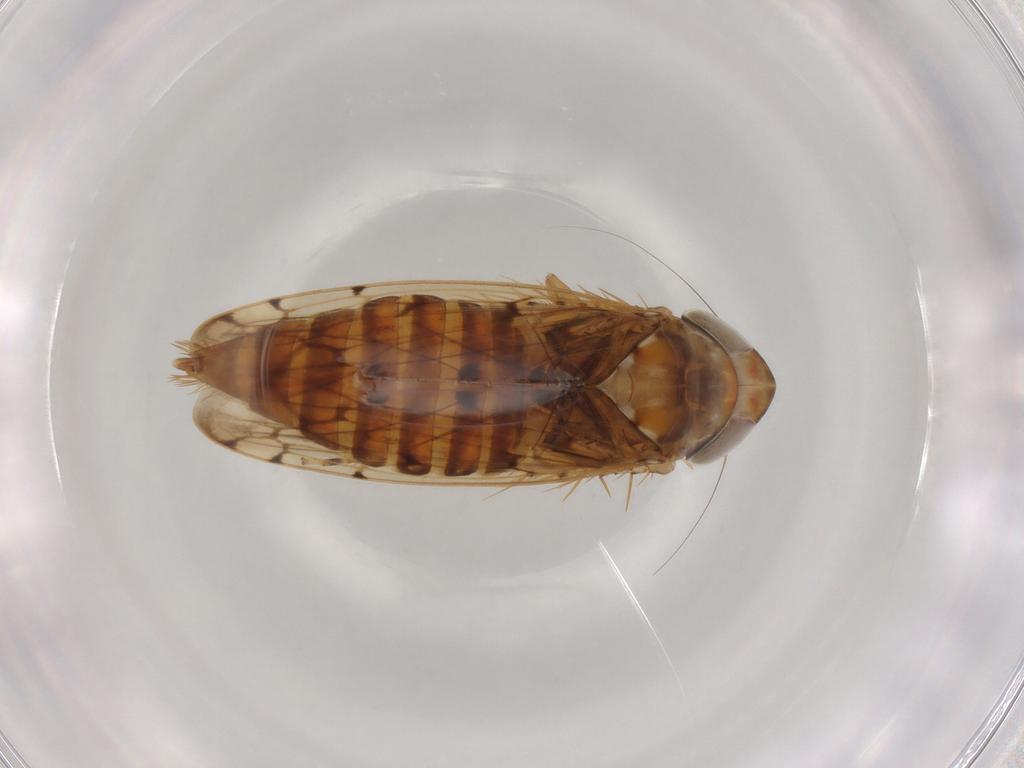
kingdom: Animalia
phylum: Arthropoda
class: Insecta
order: Hemiptera
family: Cicadellidae
